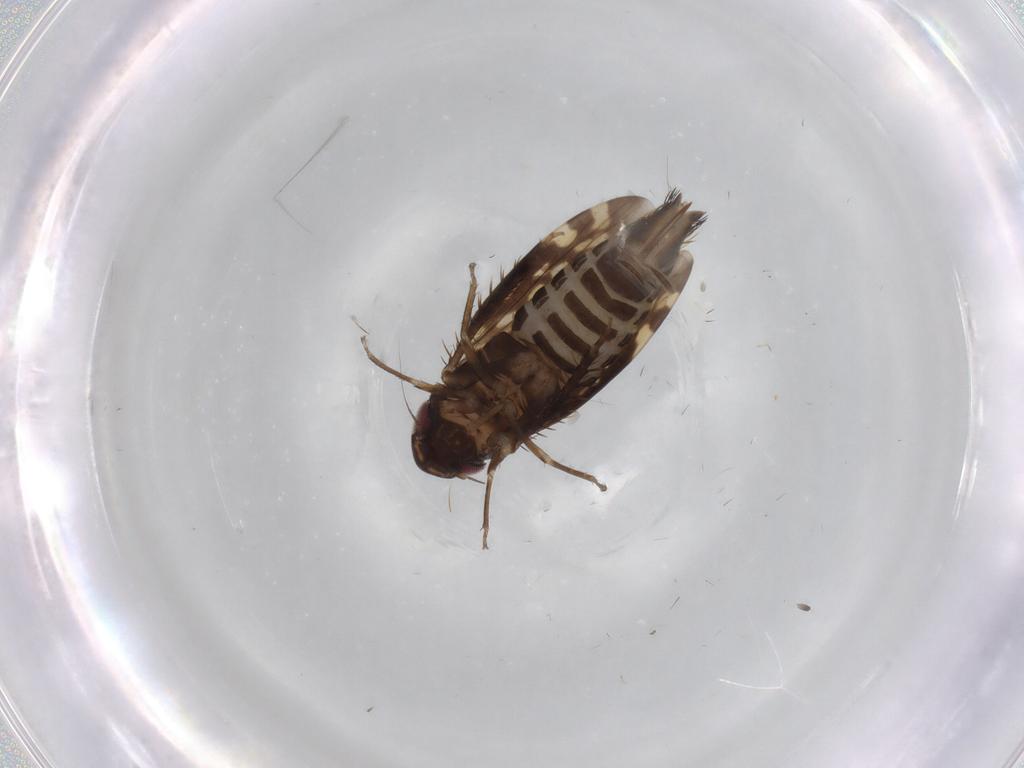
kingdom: Animalia
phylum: Arthropoda
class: Insecta
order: Hemiptera
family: Cicadellidae
